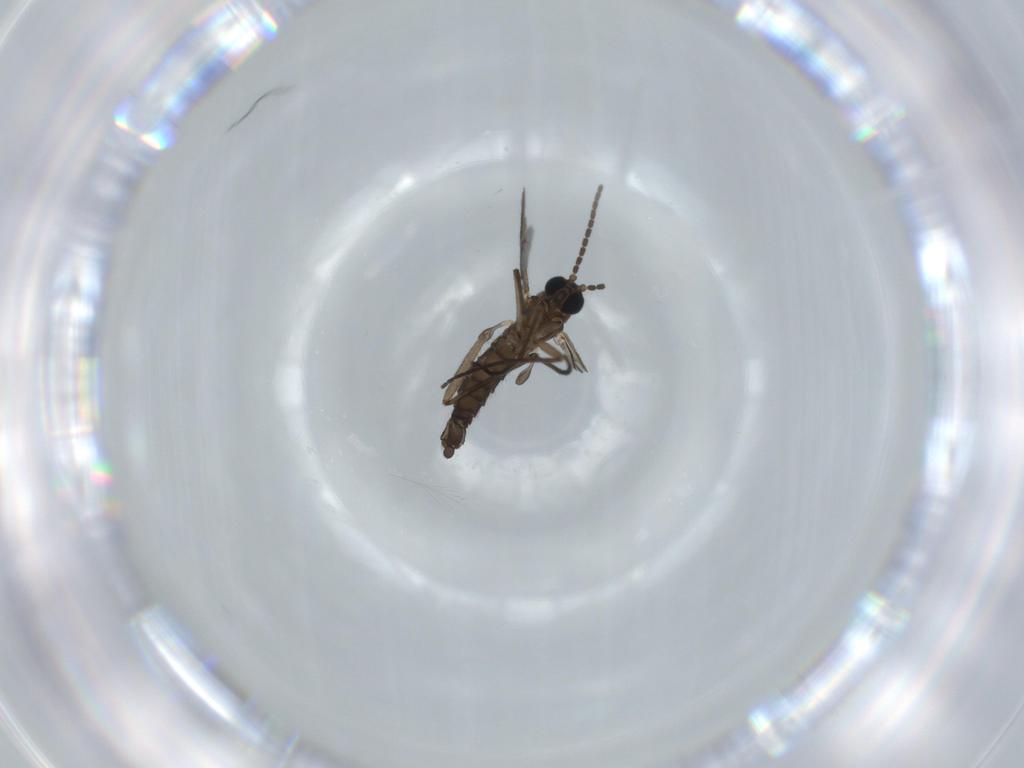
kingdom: Animalia
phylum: Arthropoda
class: Insecta
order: Diptera
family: Sciaridae
